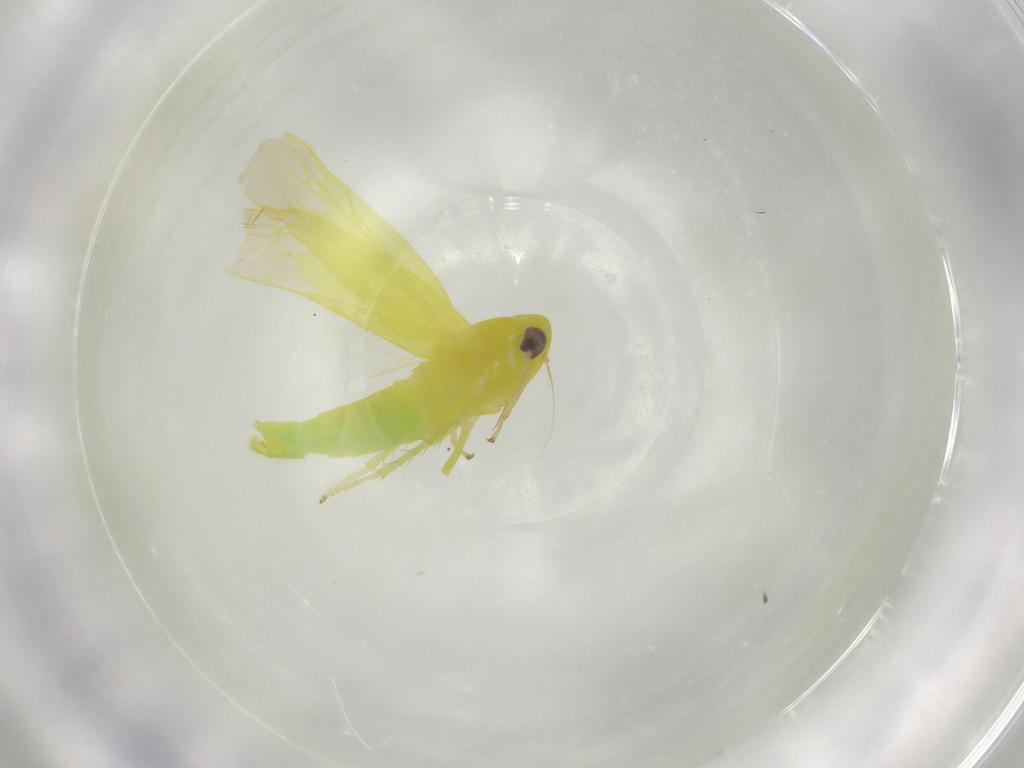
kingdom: Animalia
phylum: Arthropoda
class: Insecta
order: Hemiptera
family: Cicadellidae
